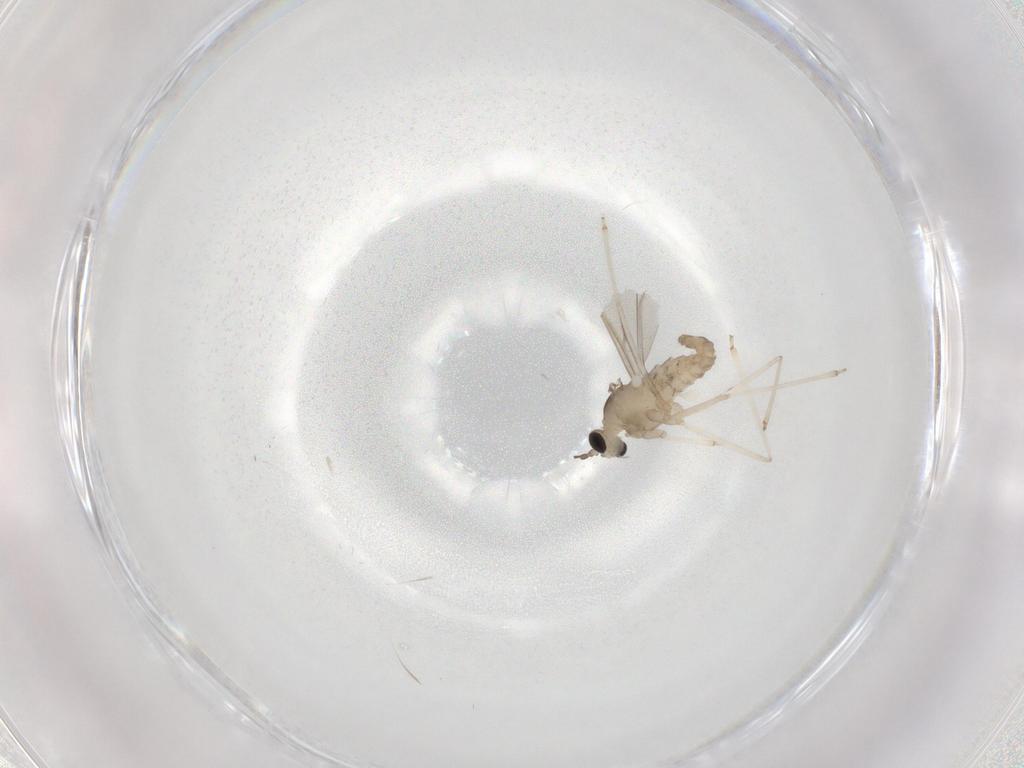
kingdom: Animalia
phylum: Arthropoda
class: Insecta
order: Diptera
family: Cecidomyiidae
